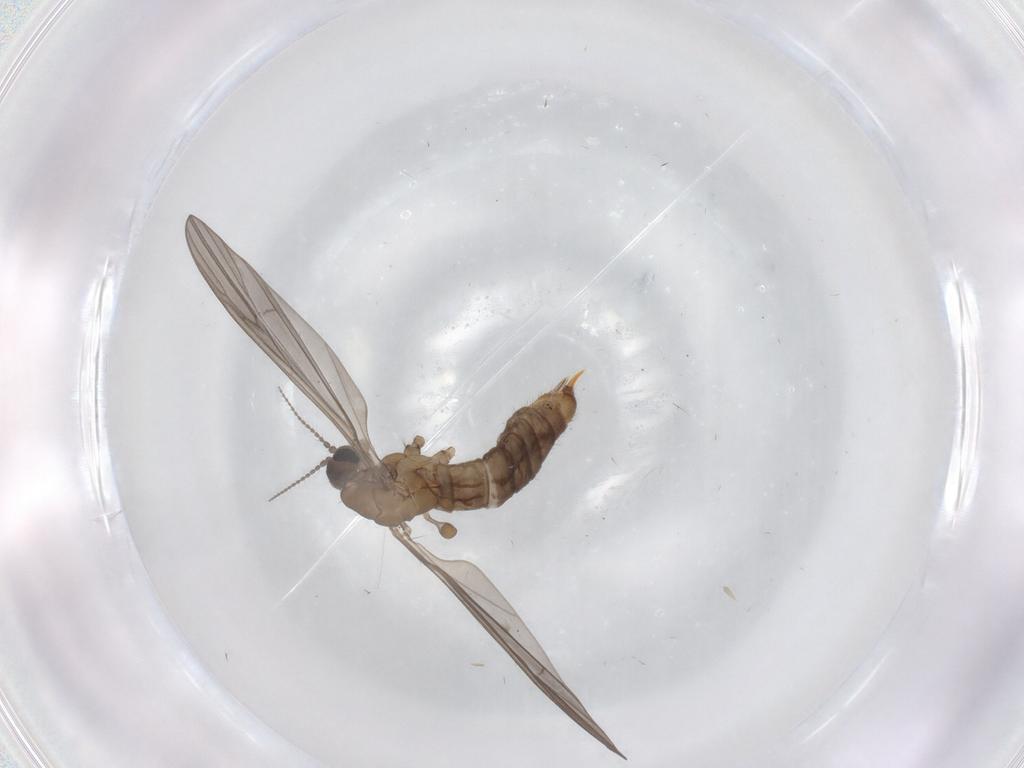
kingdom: Animalia
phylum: Arthropoda
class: Insecta
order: Diptera
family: Limoniidae
